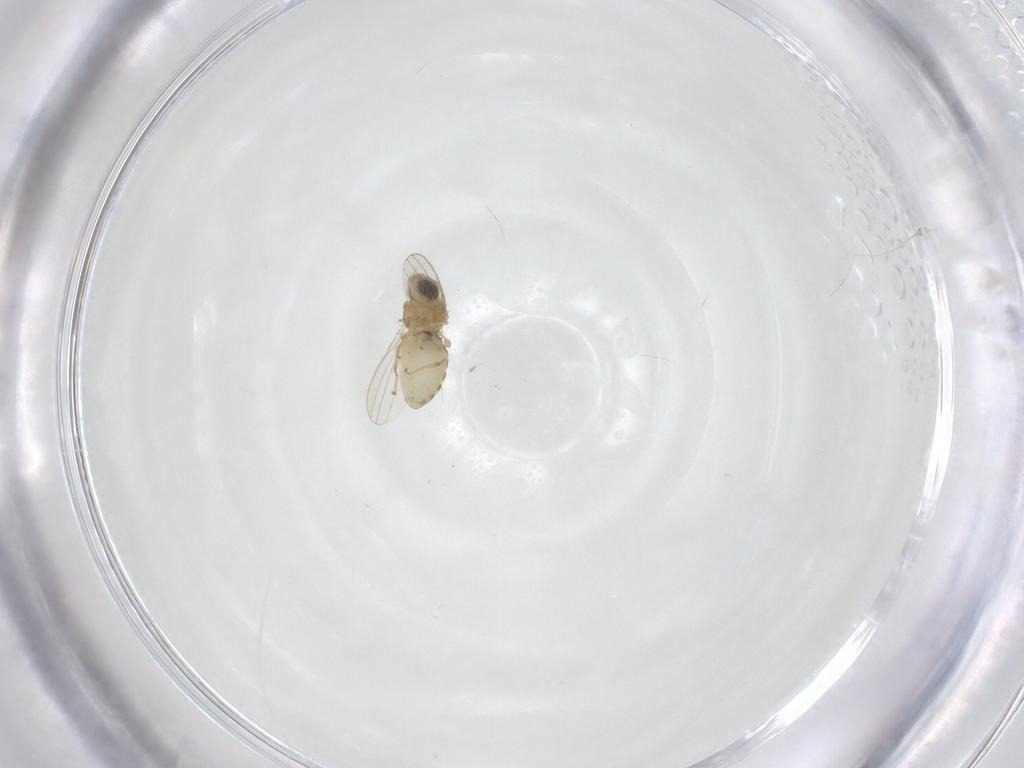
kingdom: Animalia
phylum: Arthropoda
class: Insecta
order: Diptera
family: Chyromyidae
